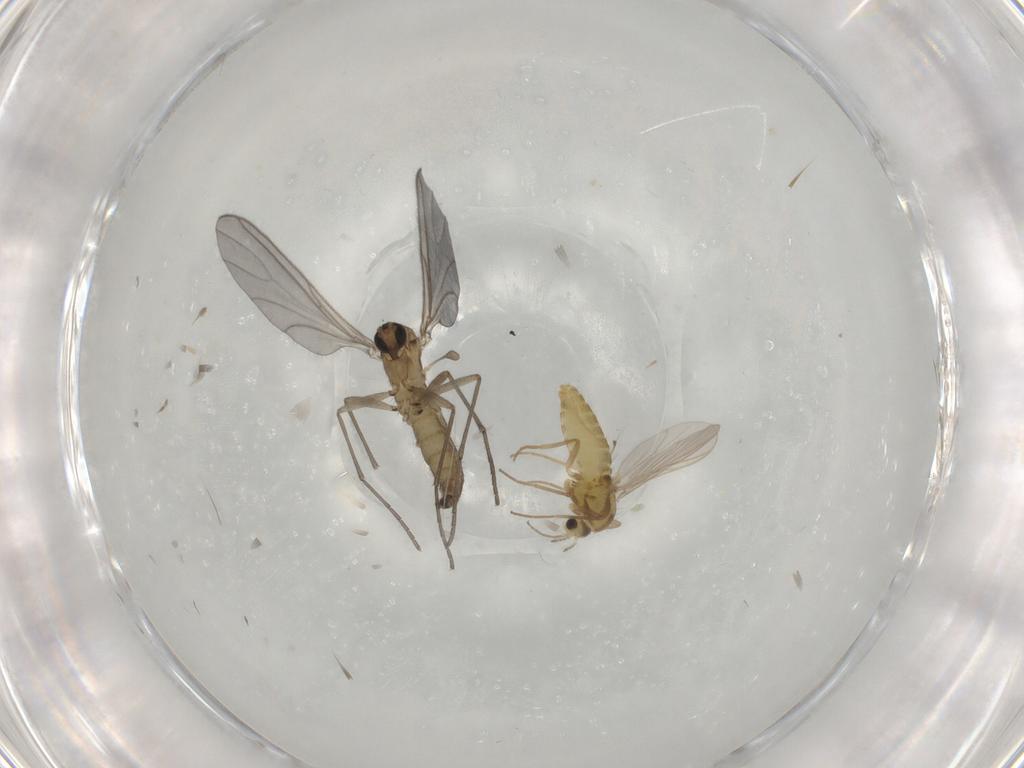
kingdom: Animalia
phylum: Arthropoda
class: Insecta
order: Diptera
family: Sciaridae
